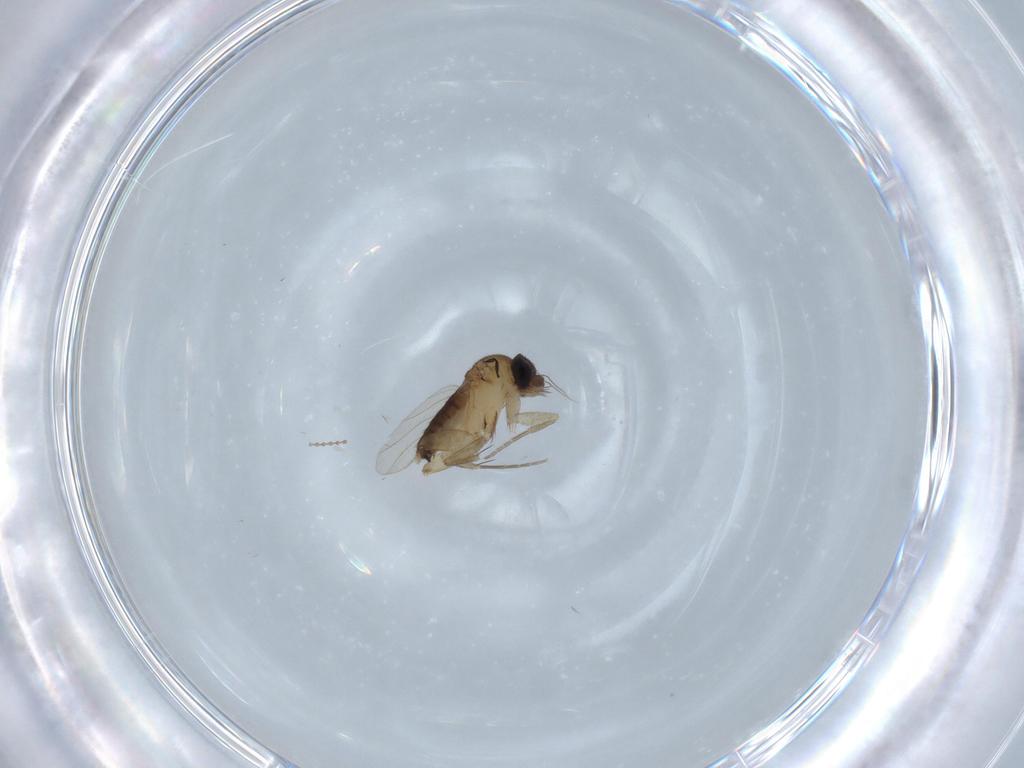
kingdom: Animalia
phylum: Arthropoda
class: Insecta
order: Diptera
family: Phoridae
